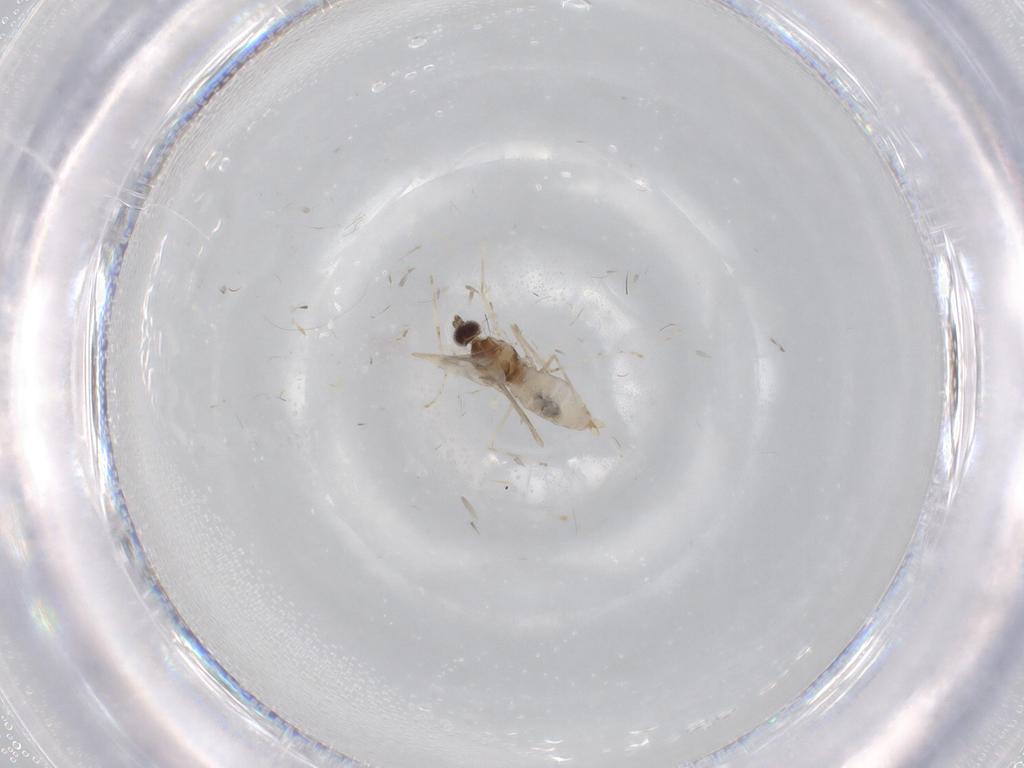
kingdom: Animalia
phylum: Arthropoda
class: Insecta
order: Diptera
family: Cecidomyiidae
